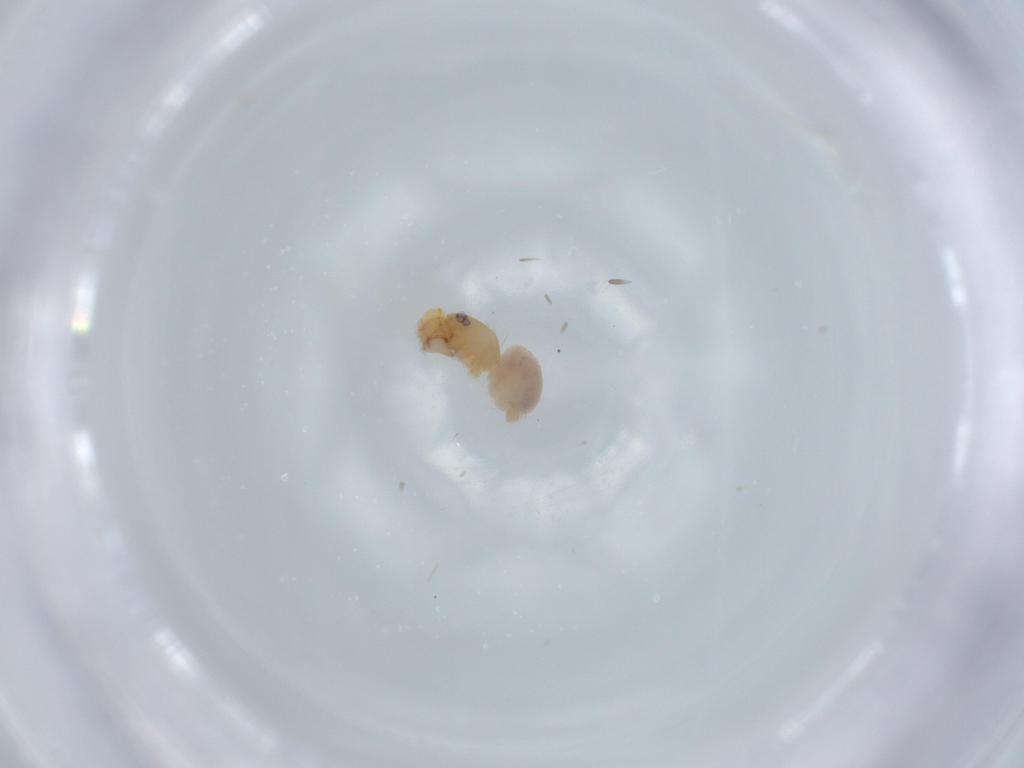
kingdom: Animalia
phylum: Arthropoda
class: Arachnida
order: Araneae
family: Oonopidae
